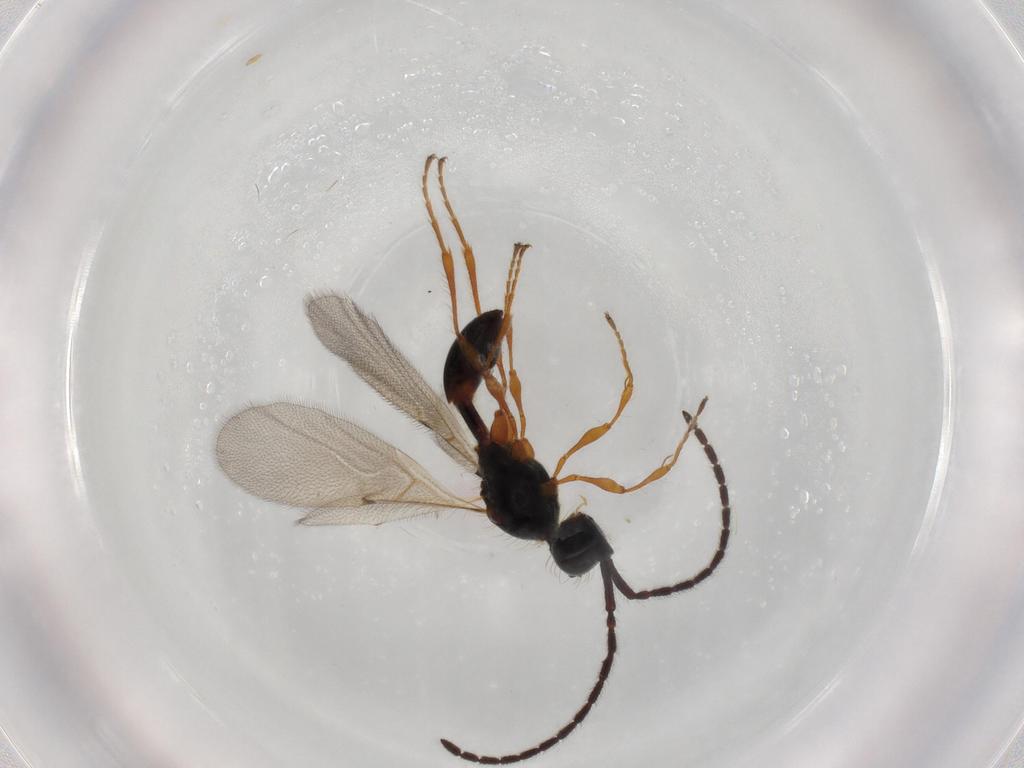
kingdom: Animalia
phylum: Arthropoda
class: Insecta
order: Hymenoptera
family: Diapriidae
